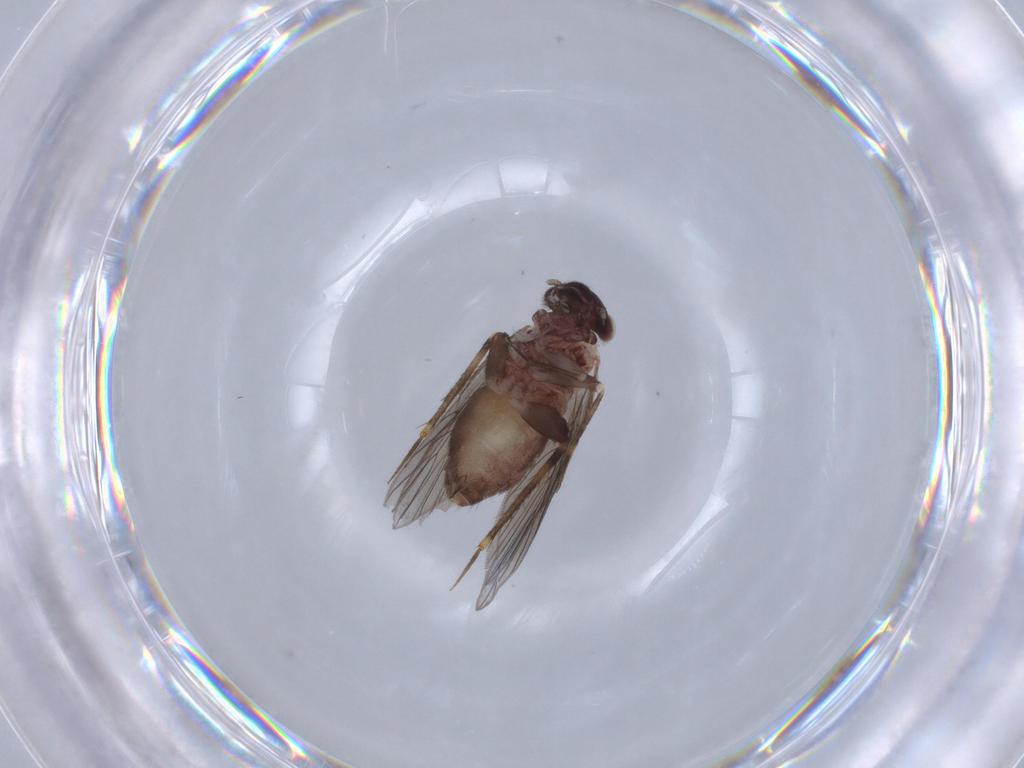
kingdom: Animalia
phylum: Arthropoda
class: Insecta
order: Psocodea
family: Lepidopsocidae
